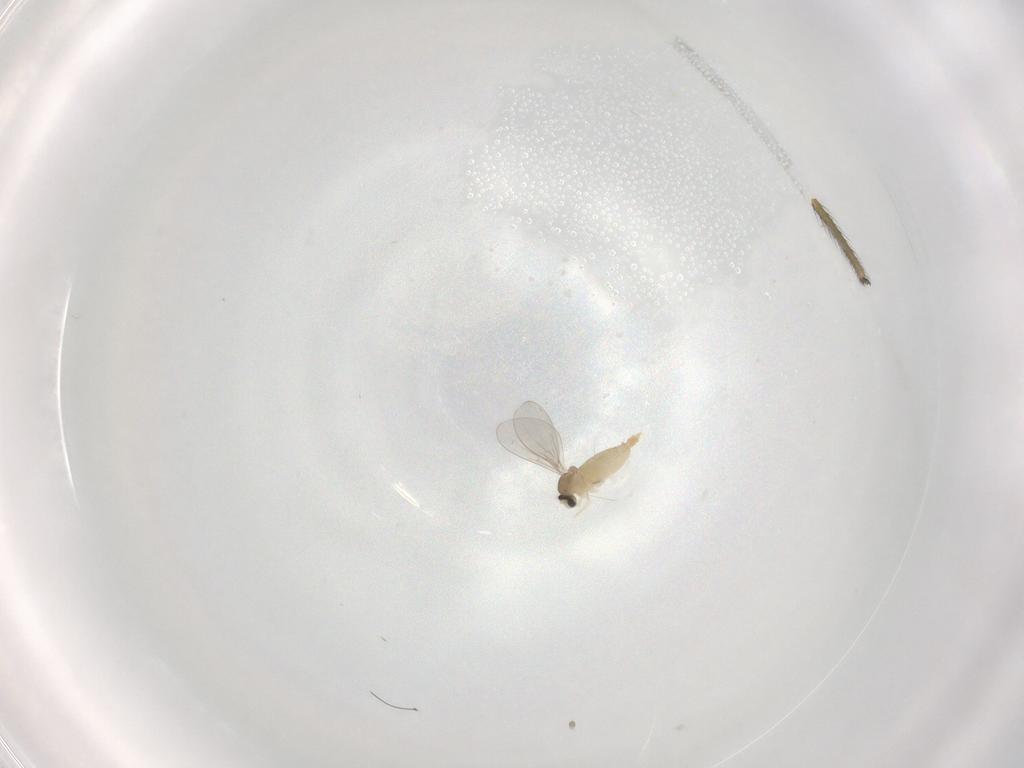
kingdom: Animalia
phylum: Arthropoda
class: Insecta
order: Diptera
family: Cecidomyiidae
